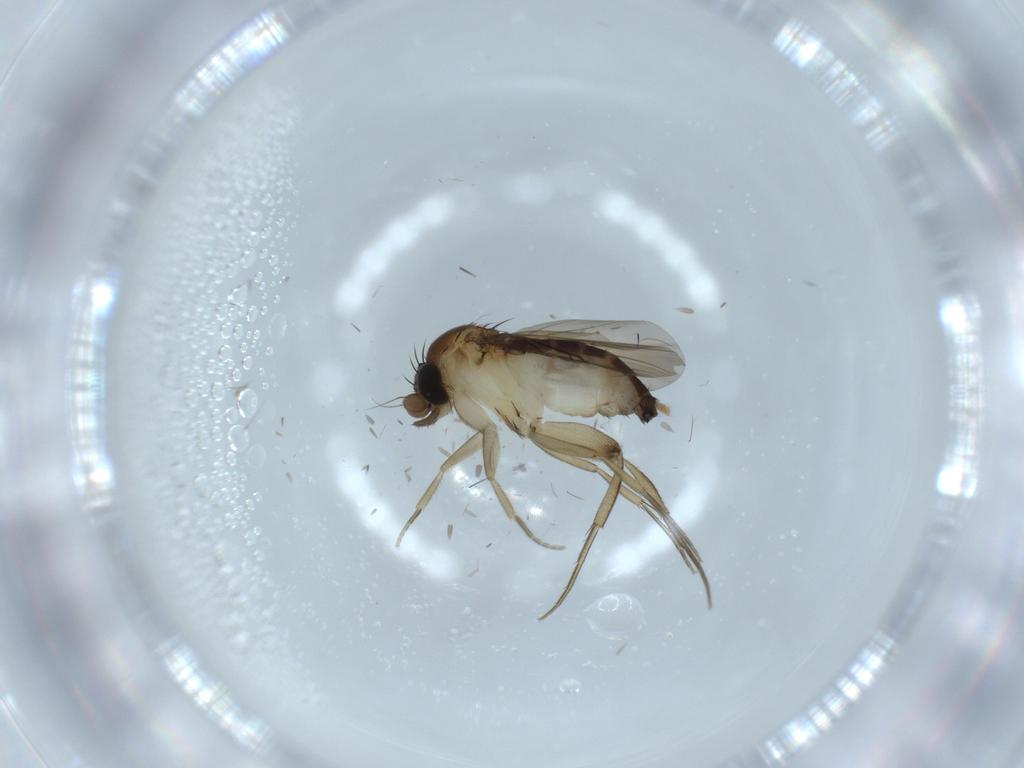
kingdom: Animalia
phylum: Arthropoda
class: Insecta
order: Diptera
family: Phoridae
